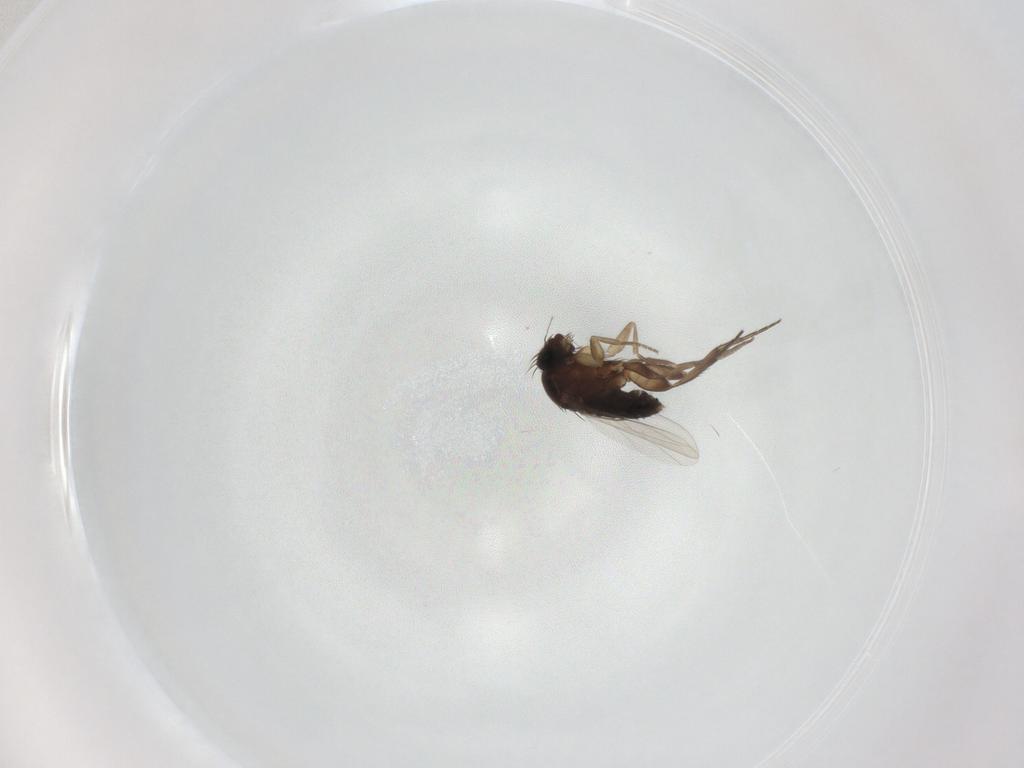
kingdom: Animalia
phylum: Arthropoda
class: Insecta
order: Diptera
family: Phoridae
